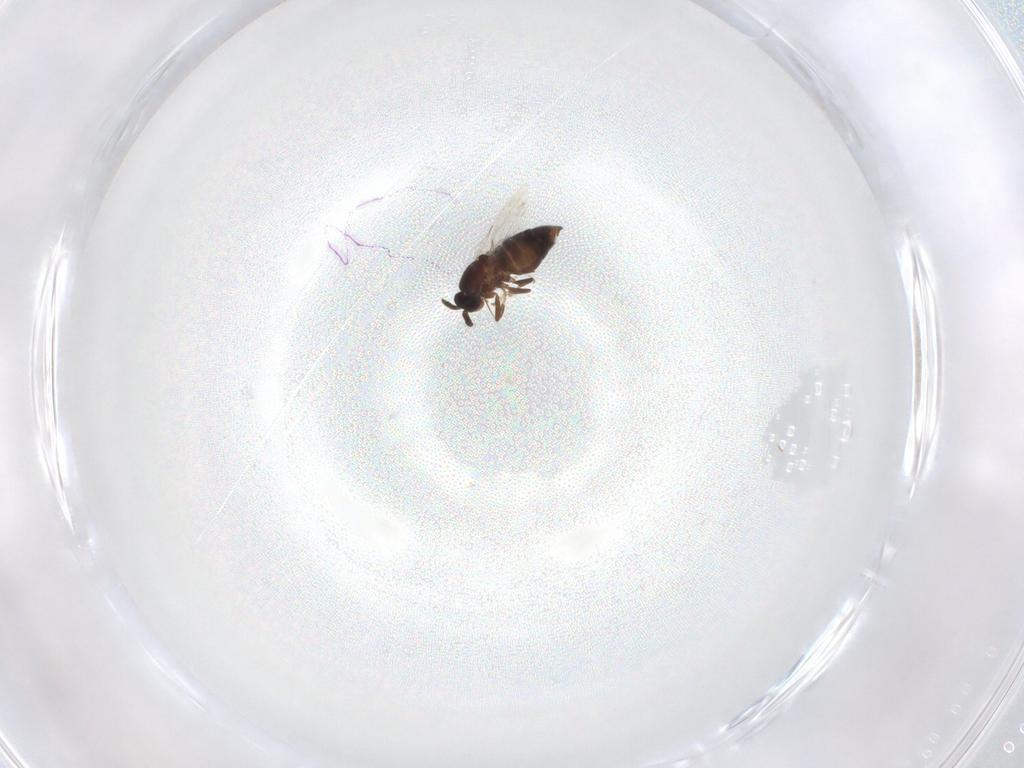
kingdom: Animalia
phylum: Arthropoda
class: Insecta
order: Diptera
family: Scatopsidae
